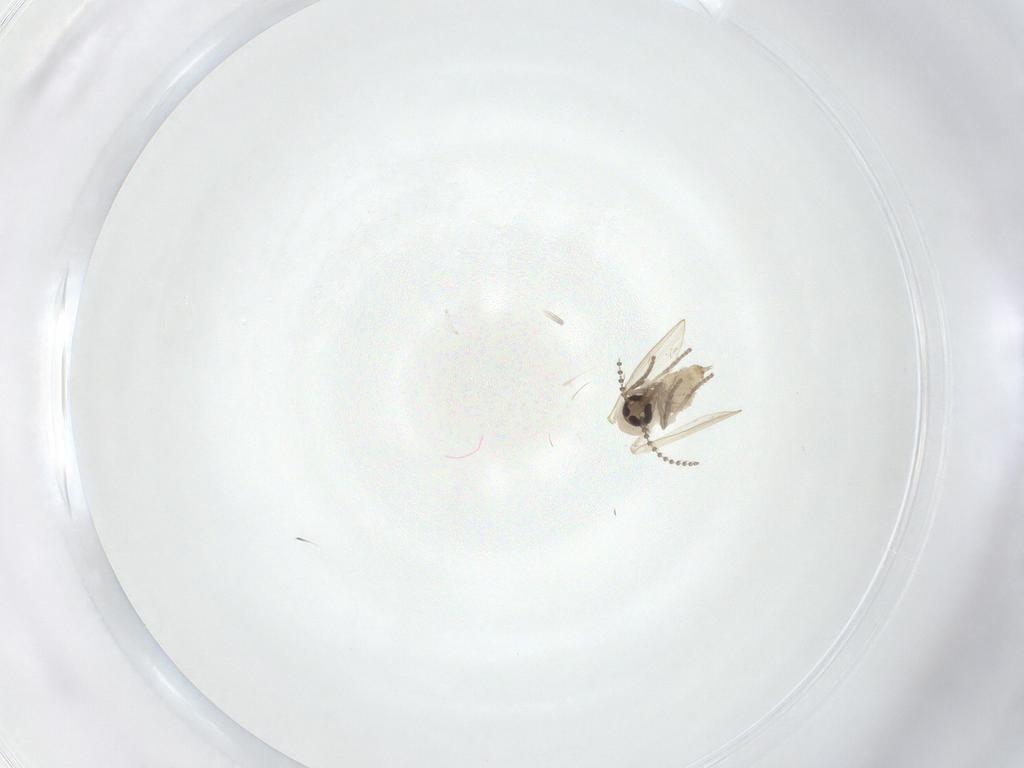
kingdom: Animalia
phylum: Arthropoda
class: Insecta
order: Diptera
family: Psychodidae
